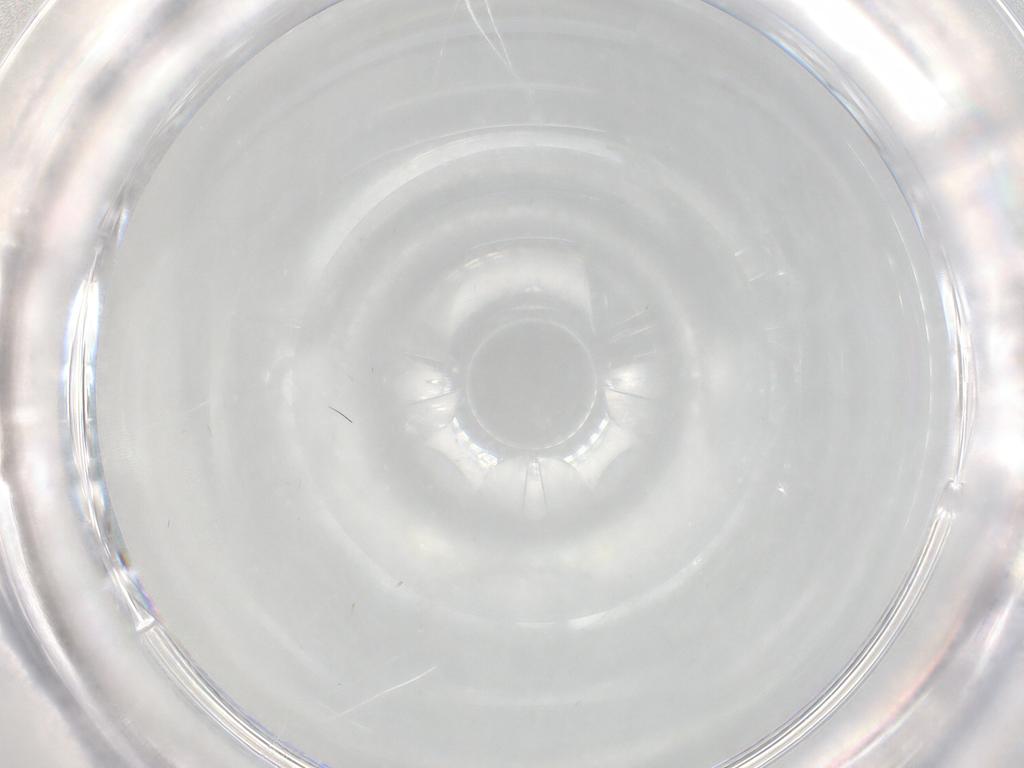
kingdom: Animalia
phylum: Arthropoda
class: Insecta
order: Diptera
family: Cecidomyiidae
